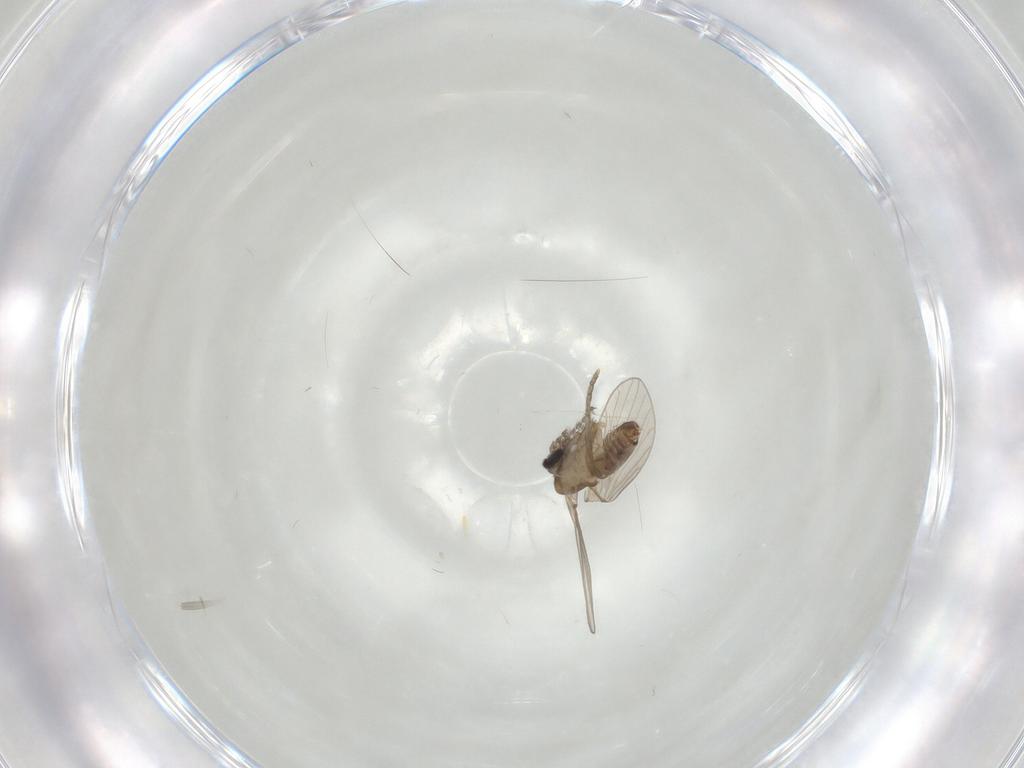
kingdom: Animalia
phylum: Arthropoda
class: Insecta
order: Diptera
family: Psychodidae
